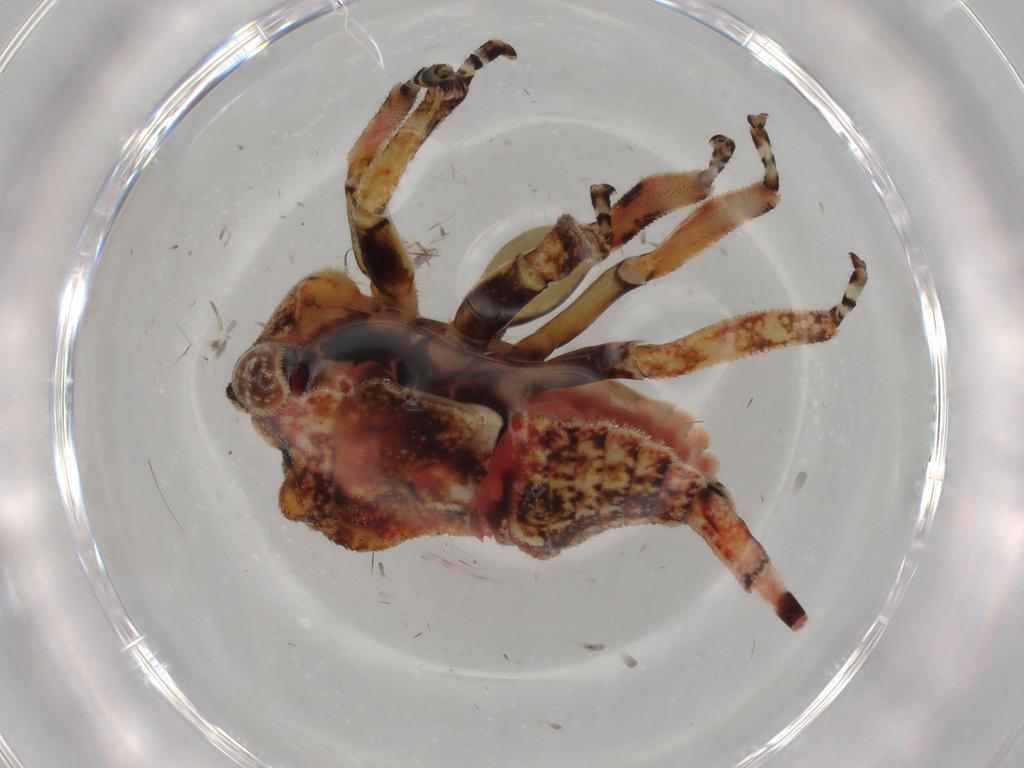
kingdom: Animalia
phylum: Arthropoda
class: Insecta
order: Hemiptera
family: Membracidae
